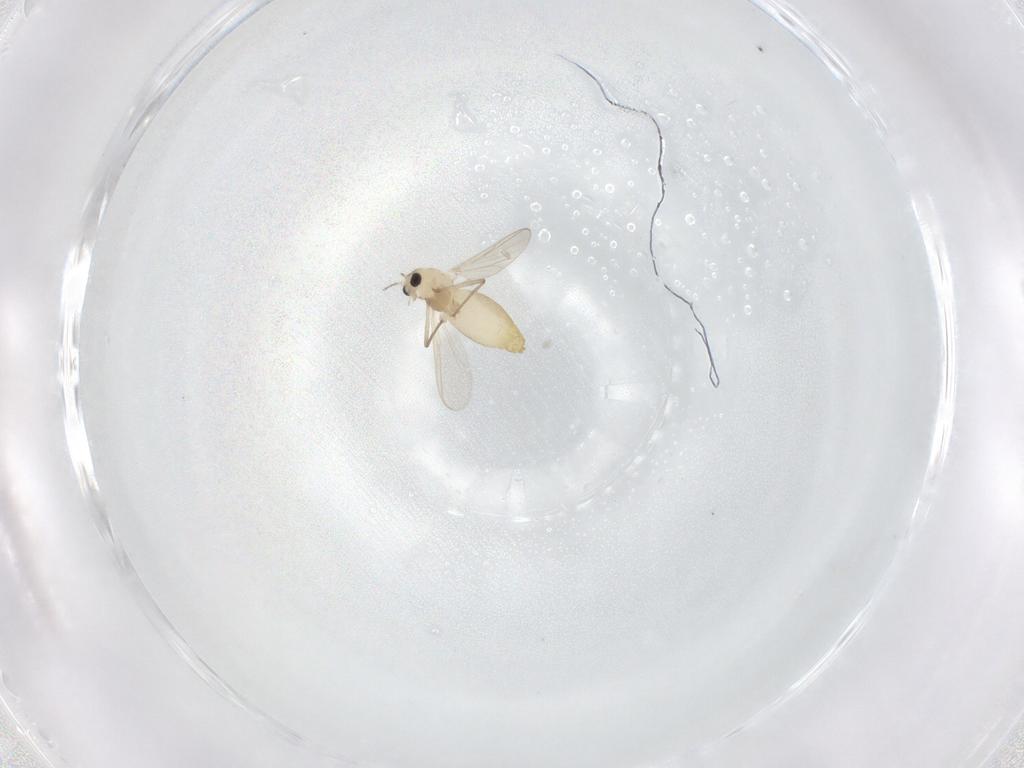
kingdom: Animalia
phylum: Arthropoda
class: Insecta
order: Diptera
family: Chironomidae
